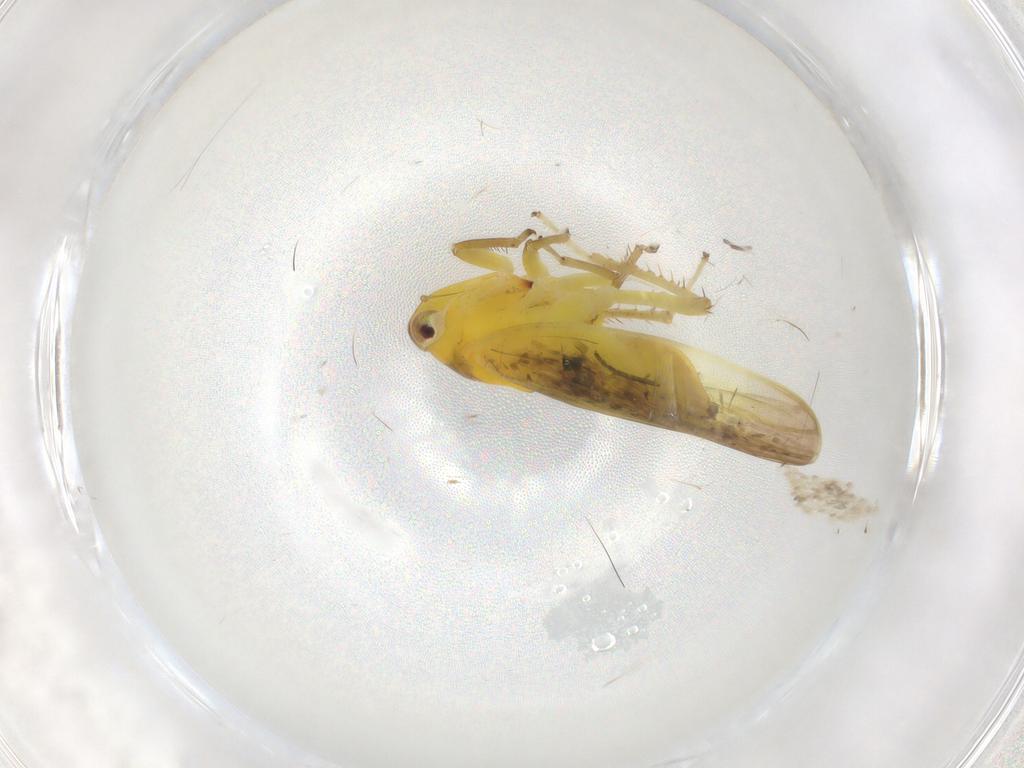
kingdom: Animalia
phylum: Arthropoda
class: Insecta
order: Hemiptera
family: Cicadellidae
